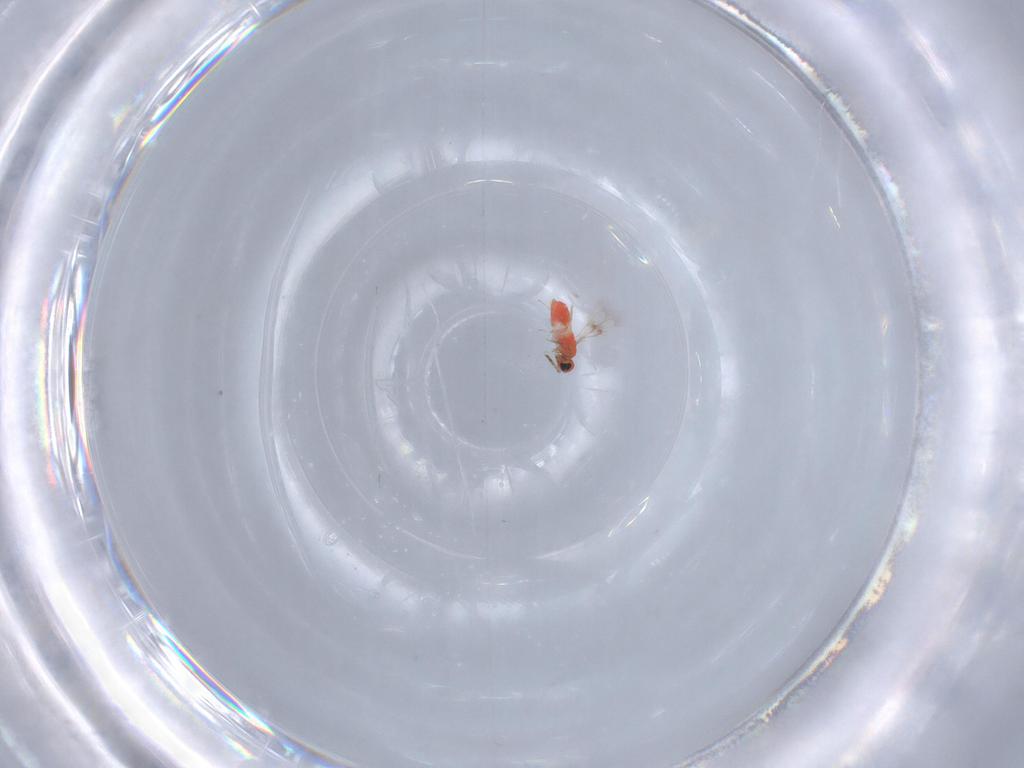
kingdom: Animalia
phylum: Arthropoda
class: Insecta
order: Hymenoptera
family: Trichogrammatidae
